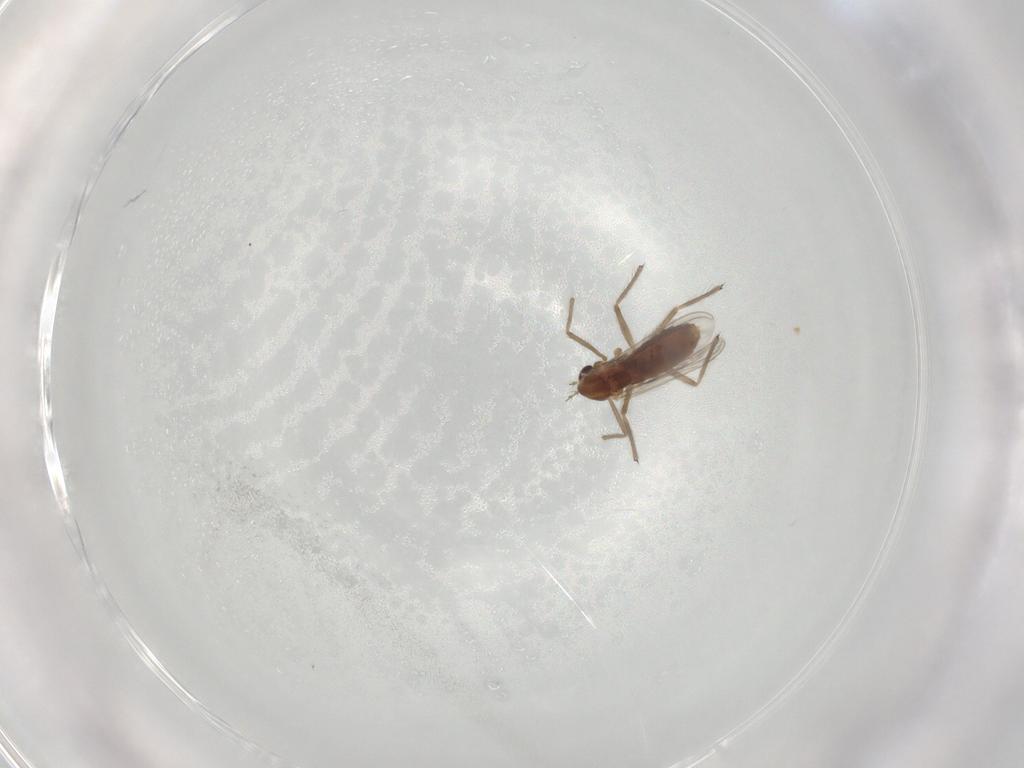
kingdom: Animalia
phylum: Arthropoda
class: Insecta
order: Diptera
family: Chironomidae
